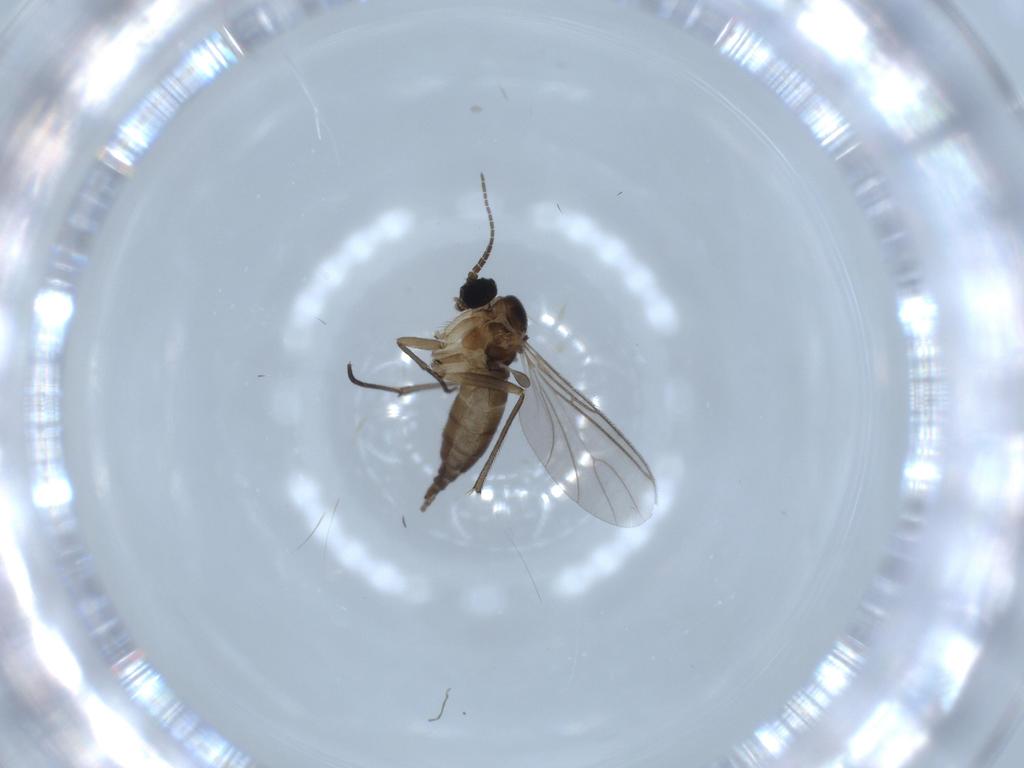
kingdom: Animalia
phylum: Arthropoda
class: Insecta
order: Diptera
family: Sciaridae
